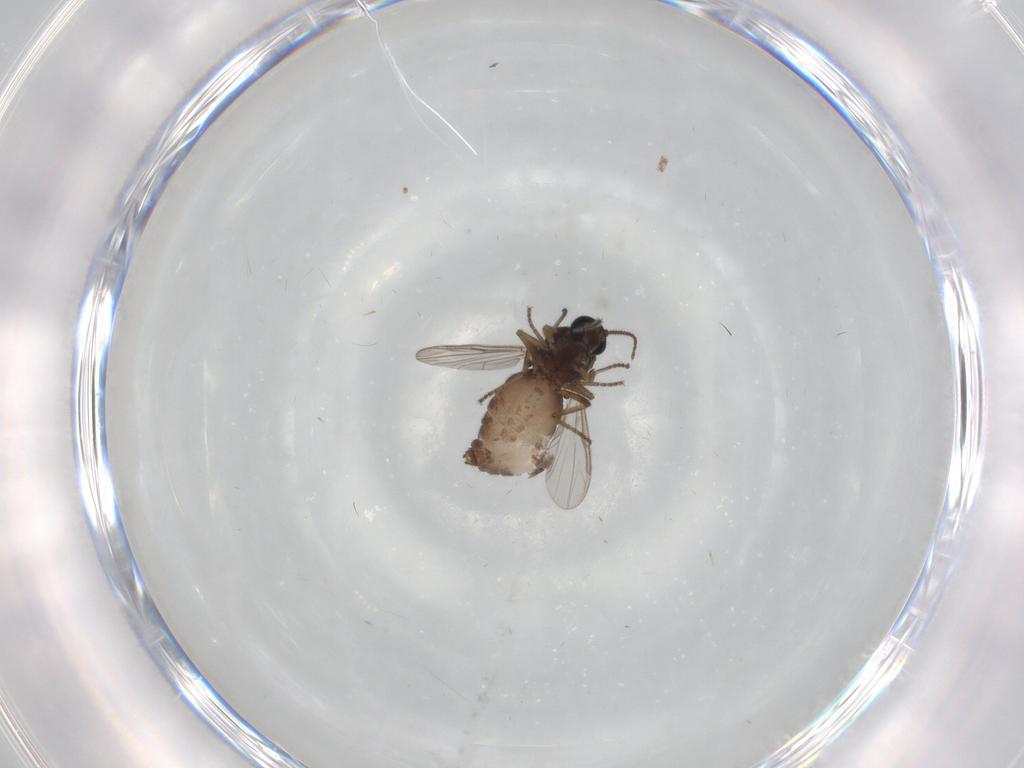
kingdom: Animalia
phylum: Arthropoda
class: Insecta
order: Diptera
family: Ceratopogonidae
